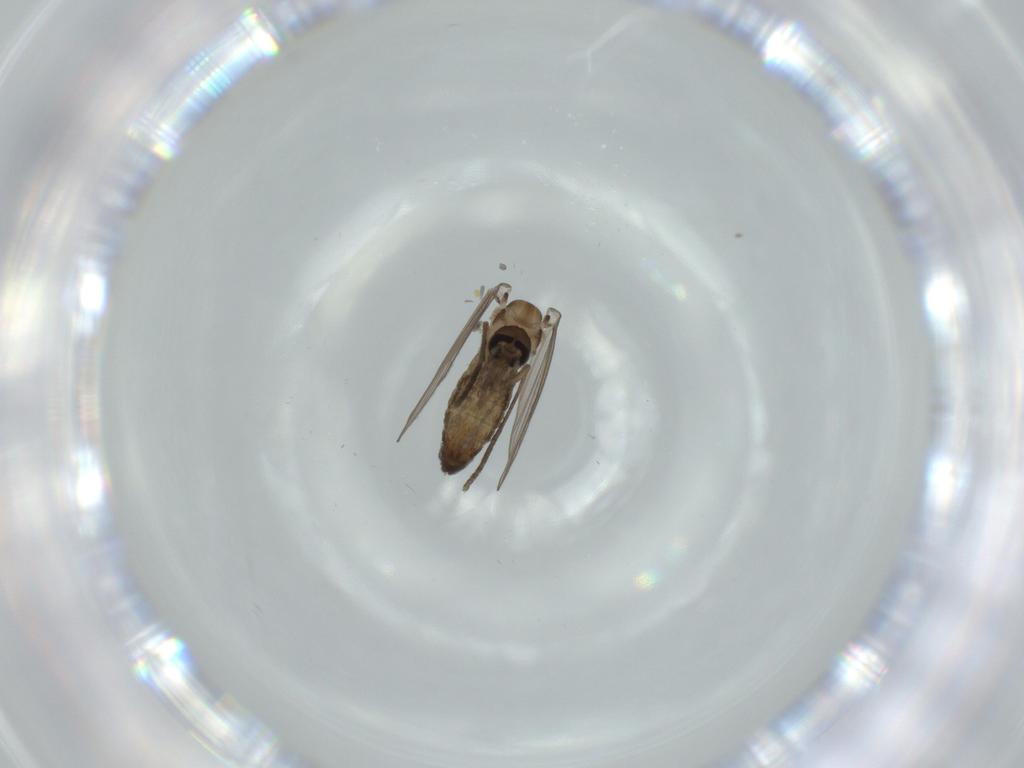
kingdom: Animalia
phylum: Arthropoda
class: Insecta
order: Diptera
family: Psychodidae
